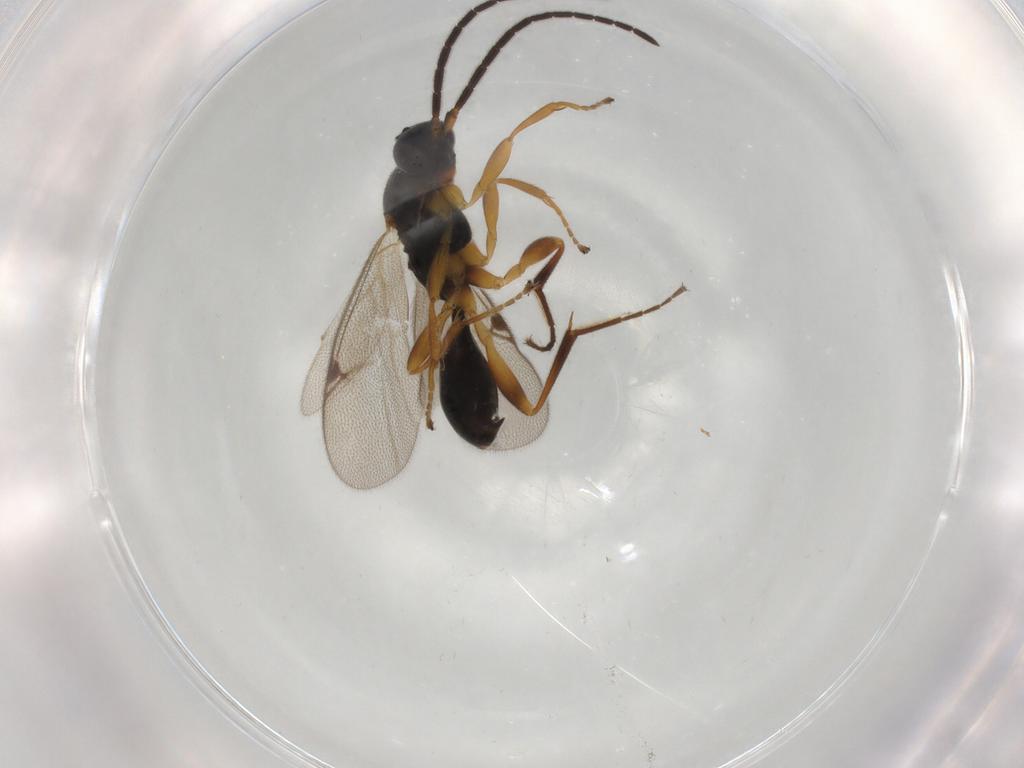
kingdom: Animalia
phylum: Arthropoda
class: Insecta
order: Hymenoptera
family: Proctotrupidae
